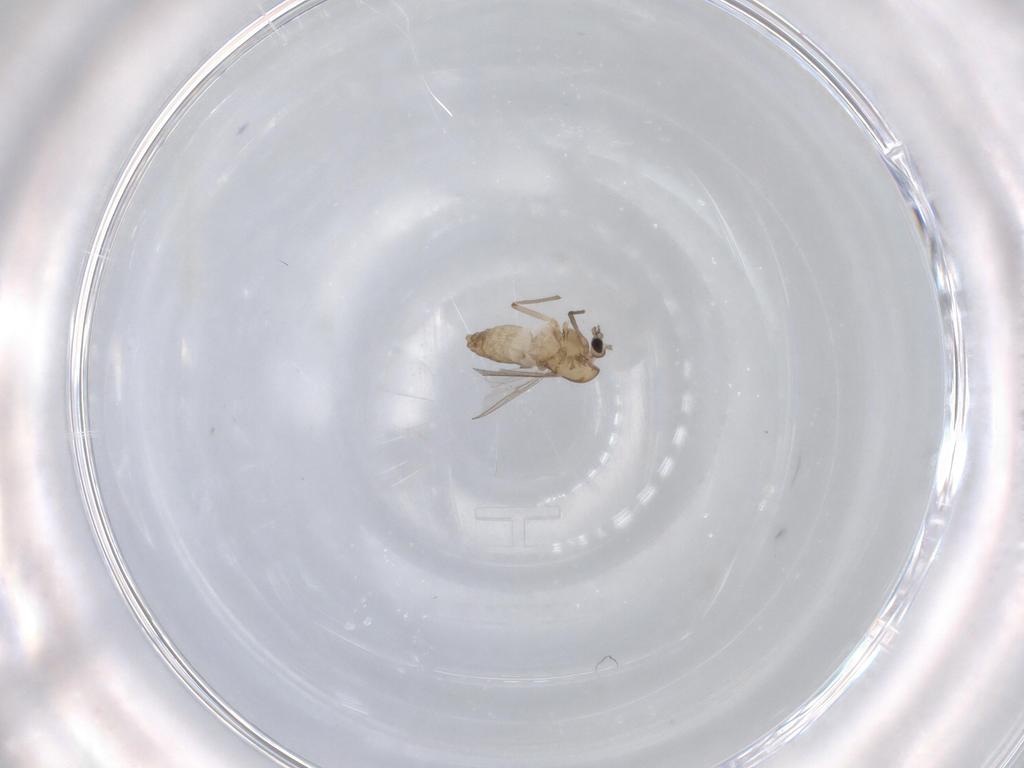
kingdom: Animalia
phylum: Arthropoda
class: Insecta
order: Diptera
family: Chironomidae
